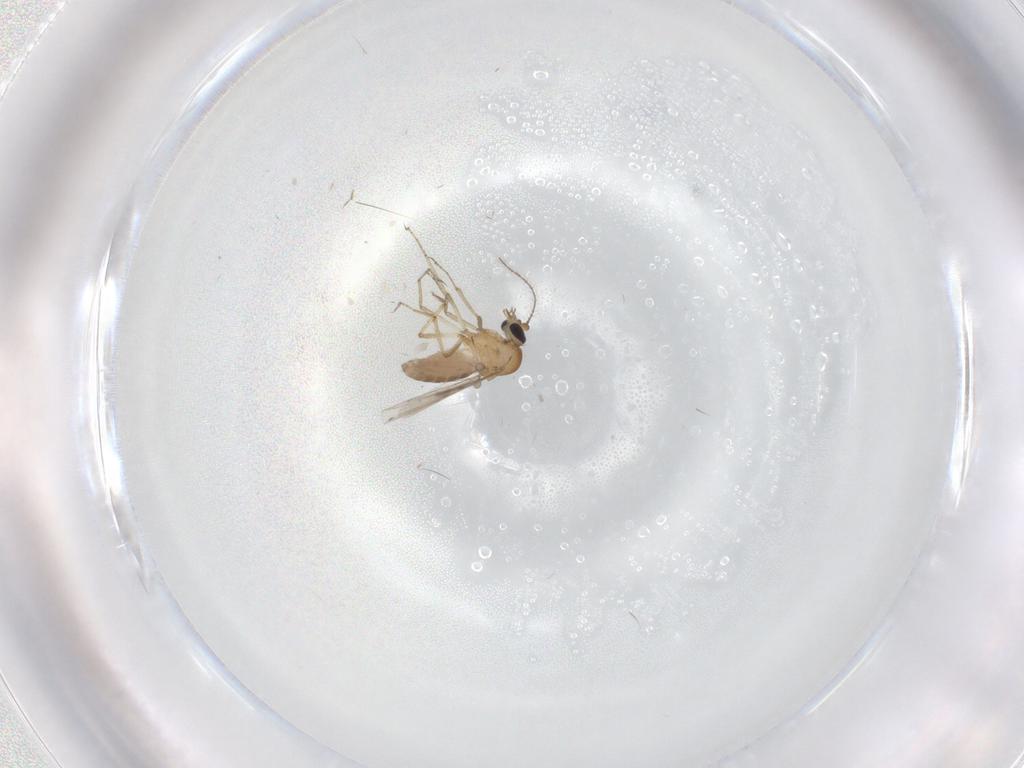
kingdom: Animalia
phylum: Arthropoda
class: Insecta
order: Diptera
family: Ceratopogonidae
